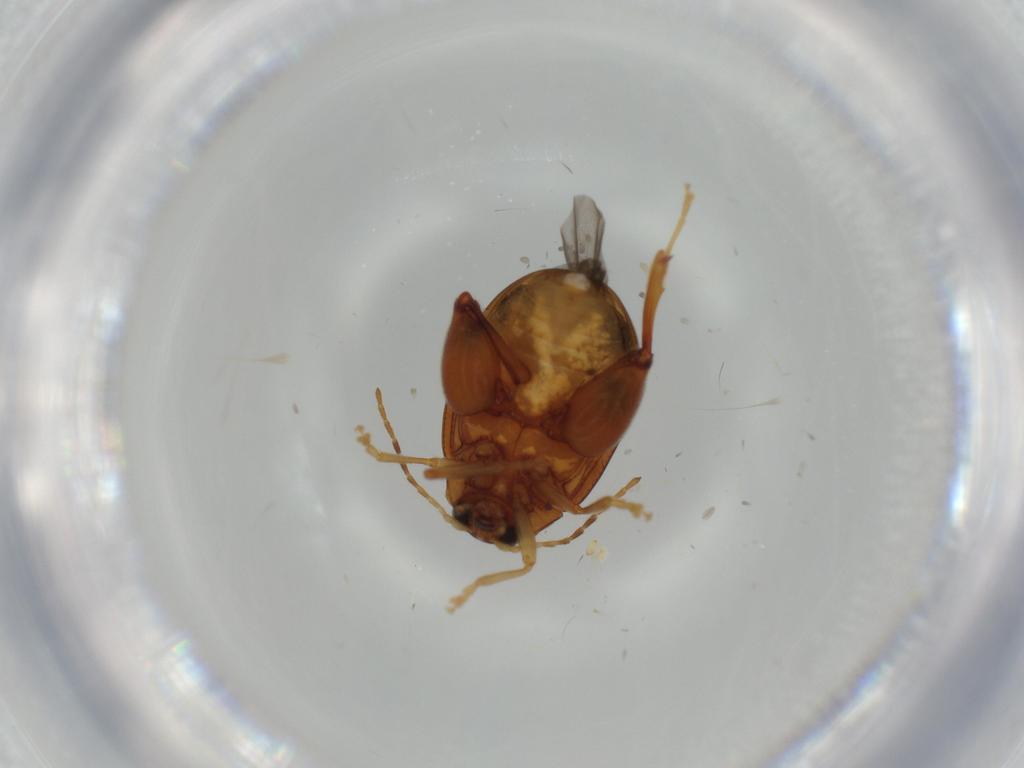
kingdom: Animalia
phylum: Arthropoda
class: Insecta
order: Coleoptera
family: Chrysomelidae
